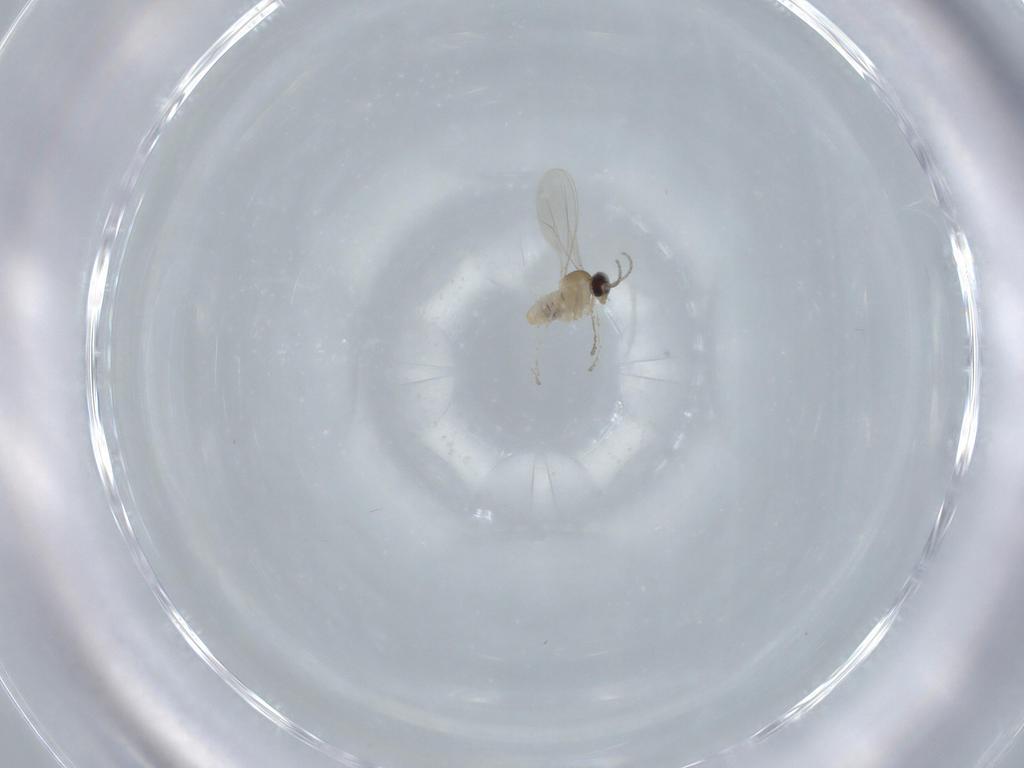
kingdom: Animalia
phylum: Arthropoda
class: Insecta
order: Diptera
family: Cecidomyiidae
